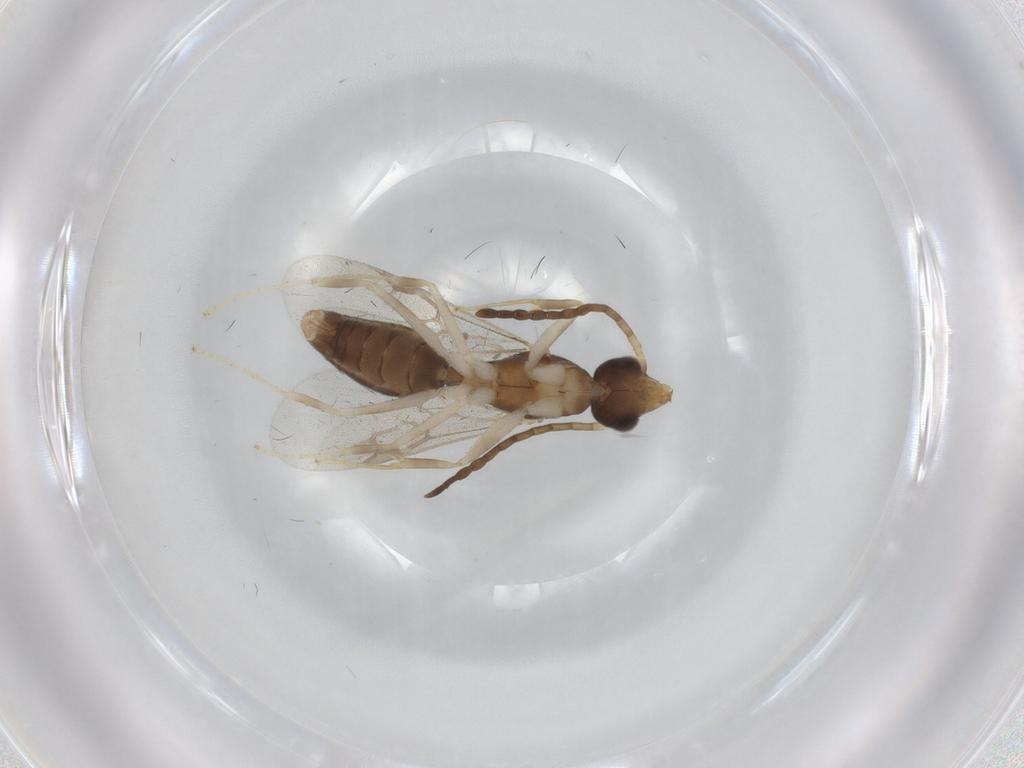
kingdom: Animalia
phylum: Arthropoda
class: Insecta
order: Hymenoptera
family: Formicidae
